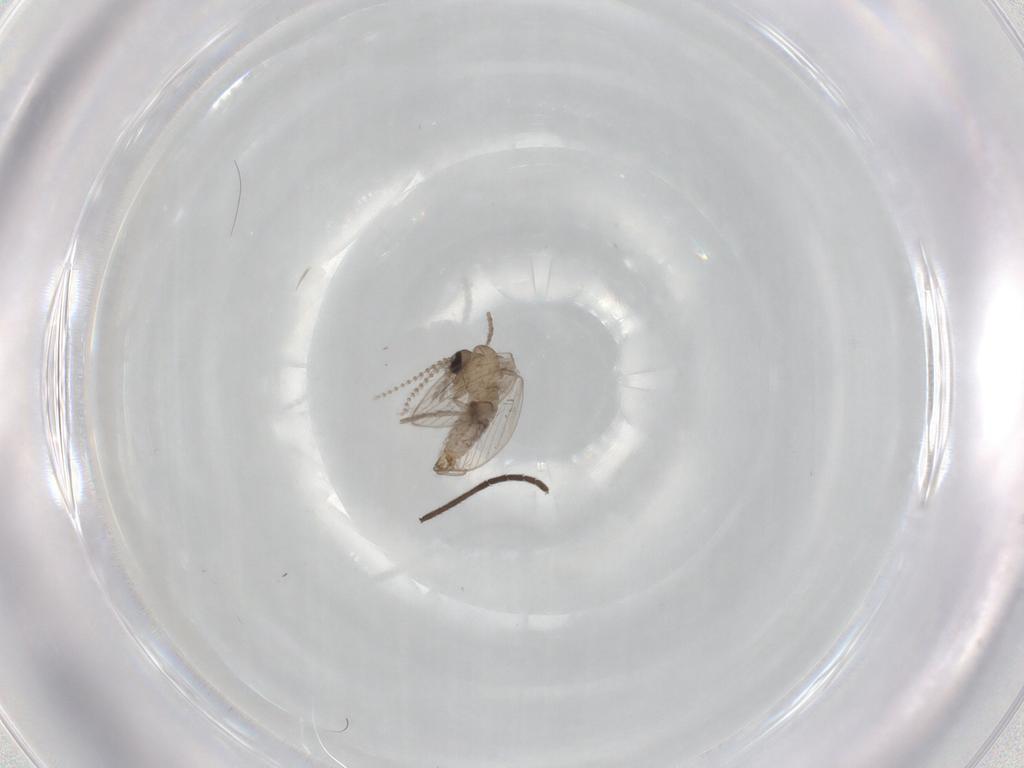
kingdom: Animalia
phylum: Arthropoda
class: Insecta
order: Diptera
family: Psychodidae
